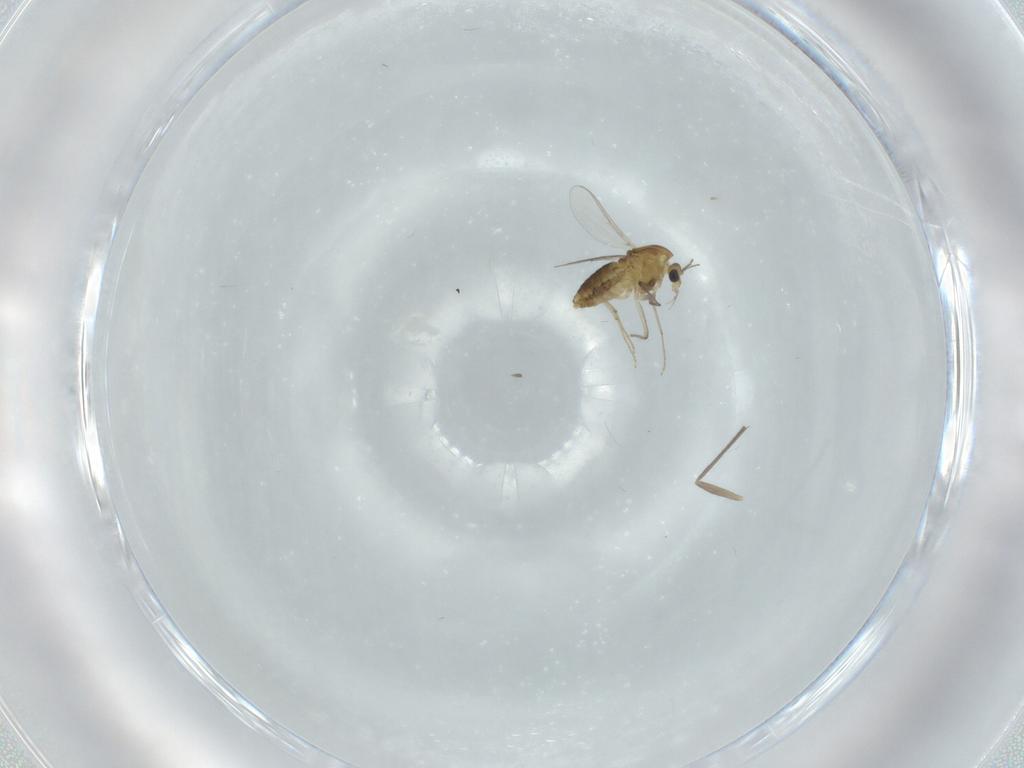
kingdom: Animalia
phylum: Arthropoda
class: Insecta
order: Diptera
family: Chironomidae
